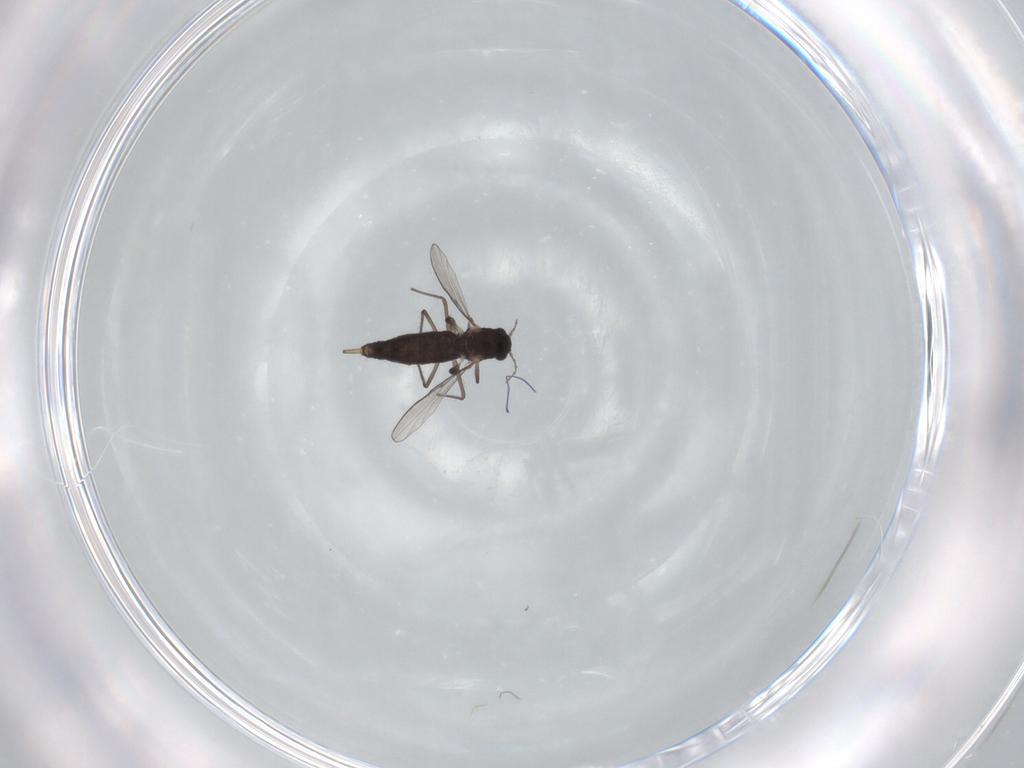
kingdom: Animalia
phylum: Arthropoda
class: Insecta
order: Diptera
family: Chironomidae
